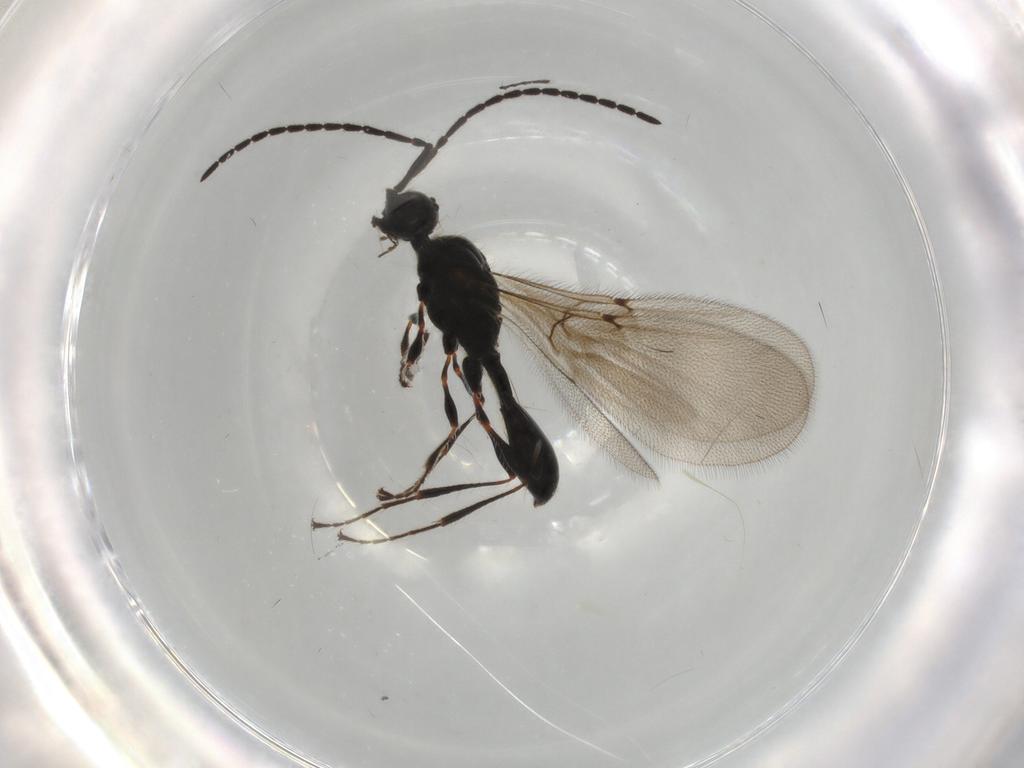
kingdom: Animalia
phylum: Arthropoda
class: Insecta
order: Hymenoptera
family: Figitidae
